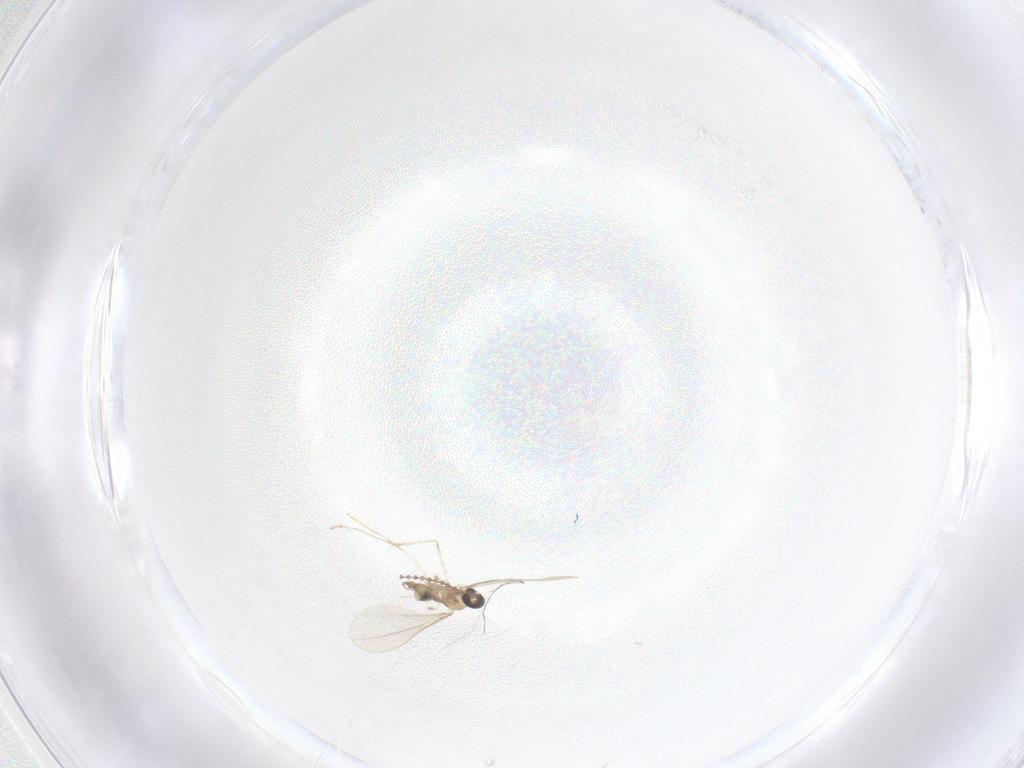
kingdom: Animalia
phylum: Arthropoda
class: Insecta
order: Diptera
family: Cecidomyiidae
